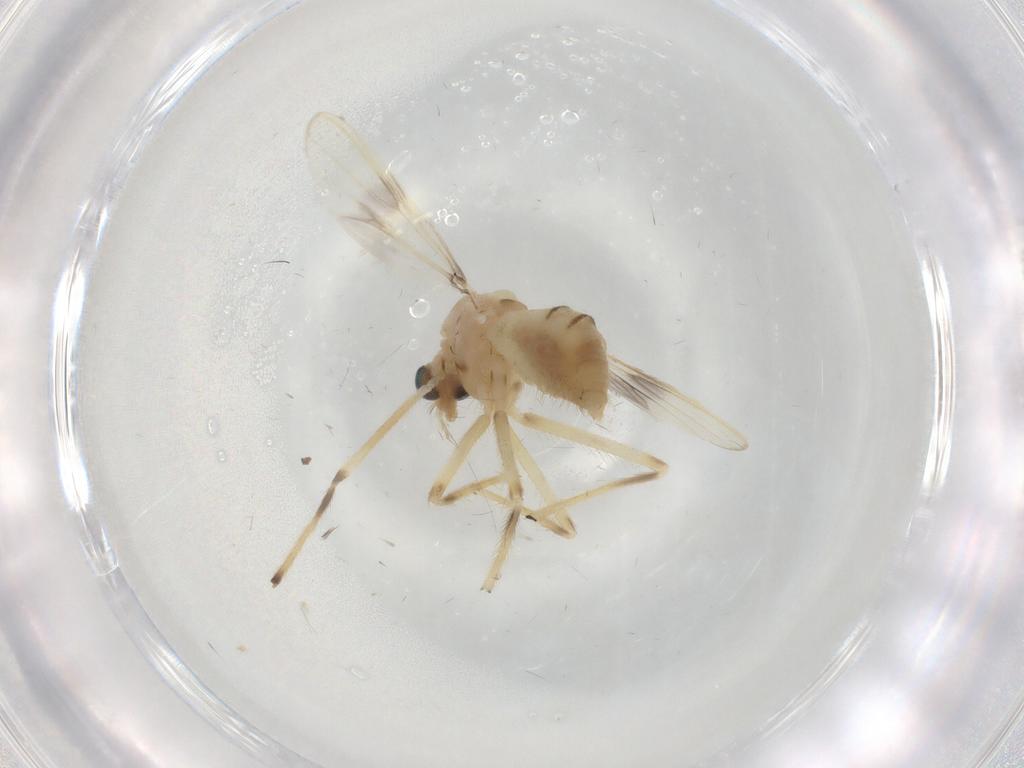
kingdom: Animalia
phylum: Arthropoda
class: Insecta
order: Diptera
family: Chironomidae
